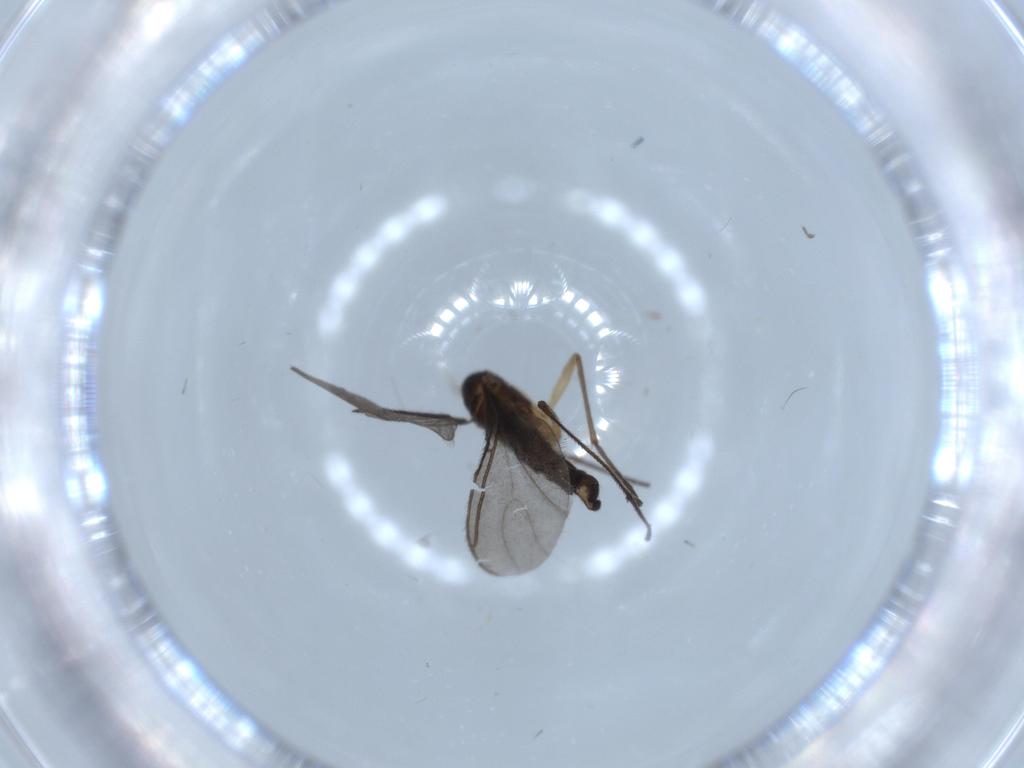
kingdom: Animalia
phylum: Arthropoda
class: Insecta
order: Diptera
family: Sciaridae
